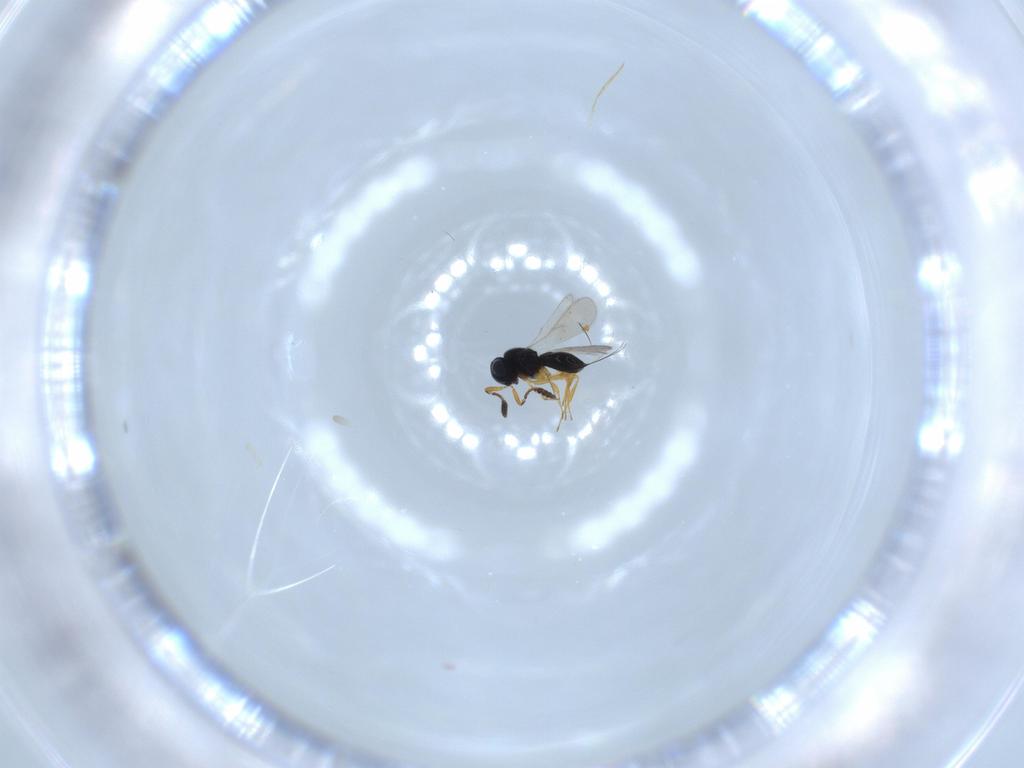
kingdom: Animalia
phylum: Arthropoda
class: Insecta
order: Hymenoptera
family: Scelionidae
